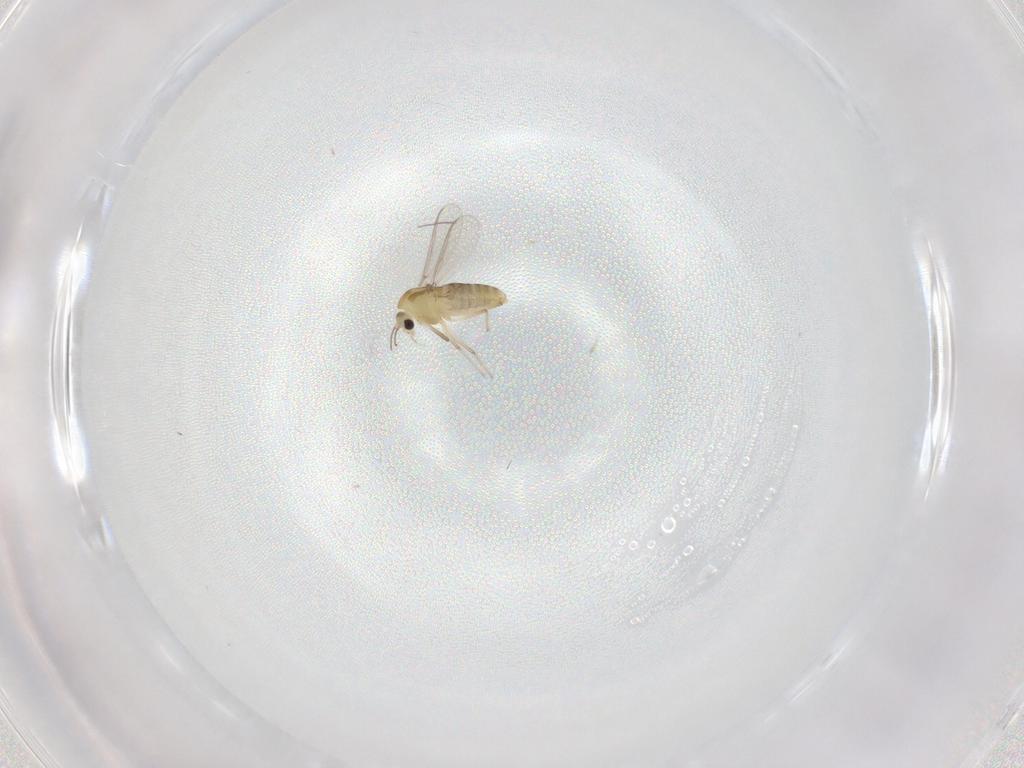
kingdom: Animalia
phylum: Arthropoda
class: Insecta
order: Diptera
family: Chironomidae
